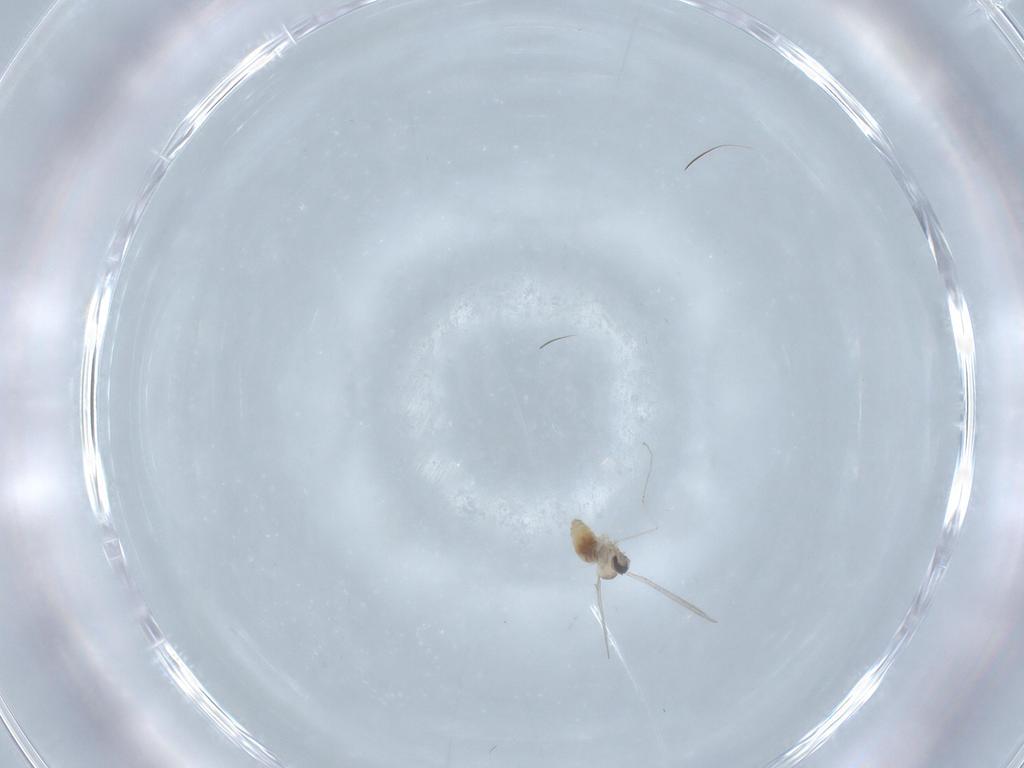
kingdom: Animalia
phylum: Arthropoda
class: Insecta
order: Diptera
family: Cecidomyiidae
